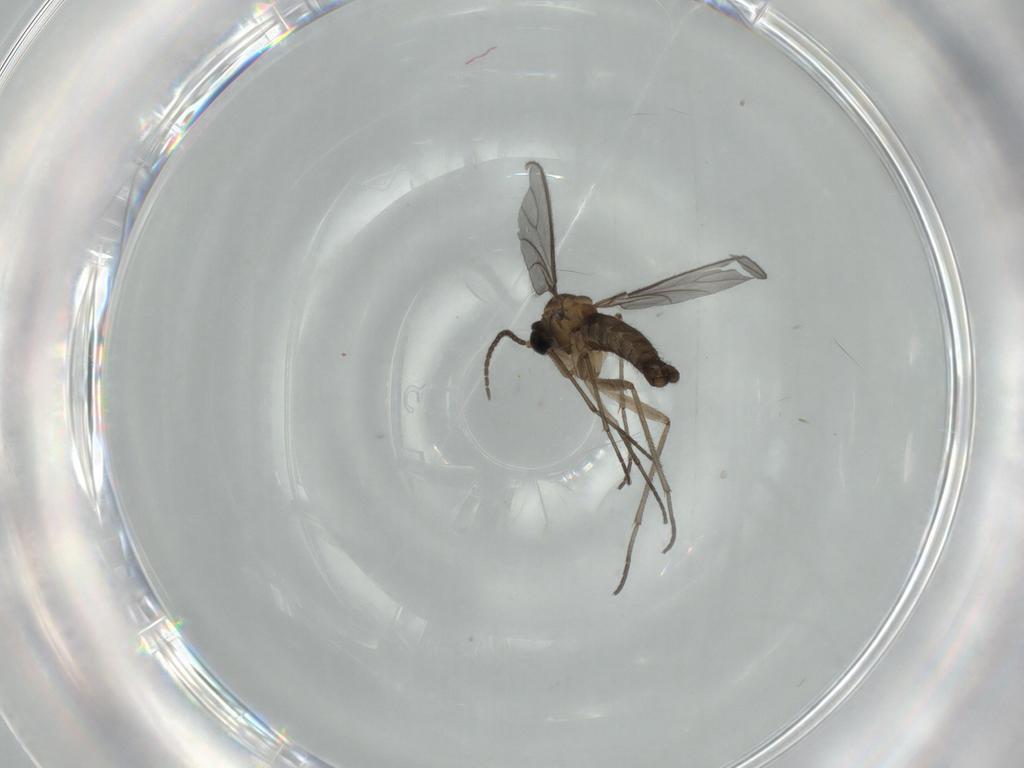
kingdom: Animalia
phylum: Arthropoda
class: Insecta
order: Diptera
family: Sciaridae
